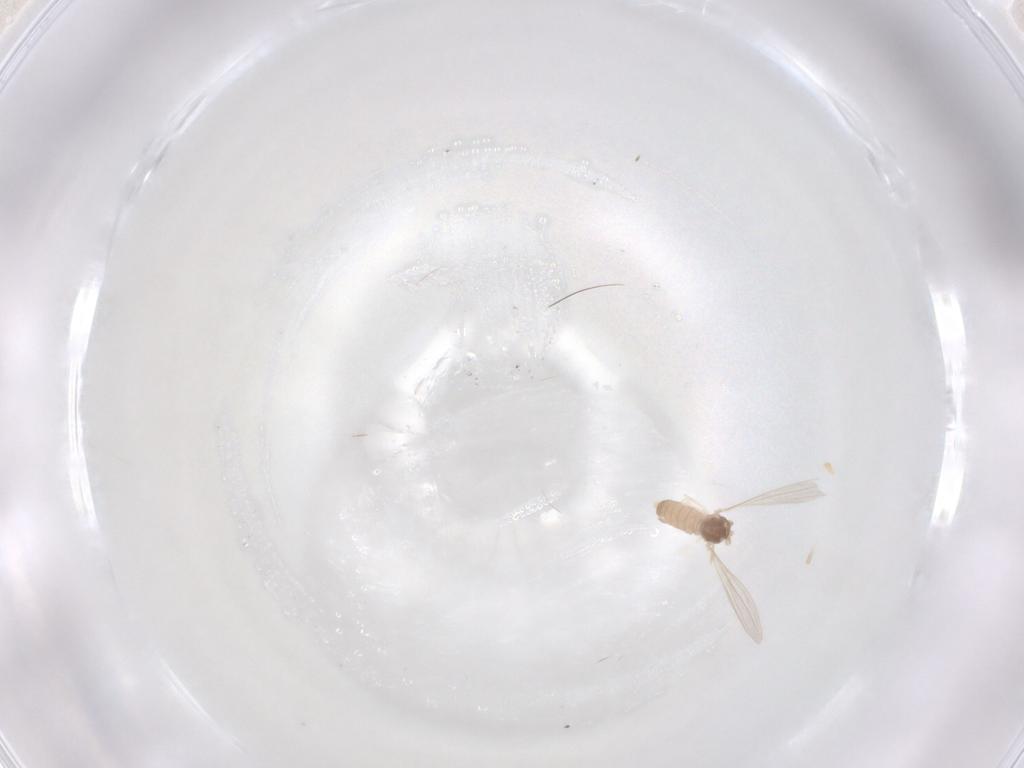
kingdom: Animalia
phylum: Arthropoda
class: Insecta
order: Diptera
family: Cecidomyiidae
